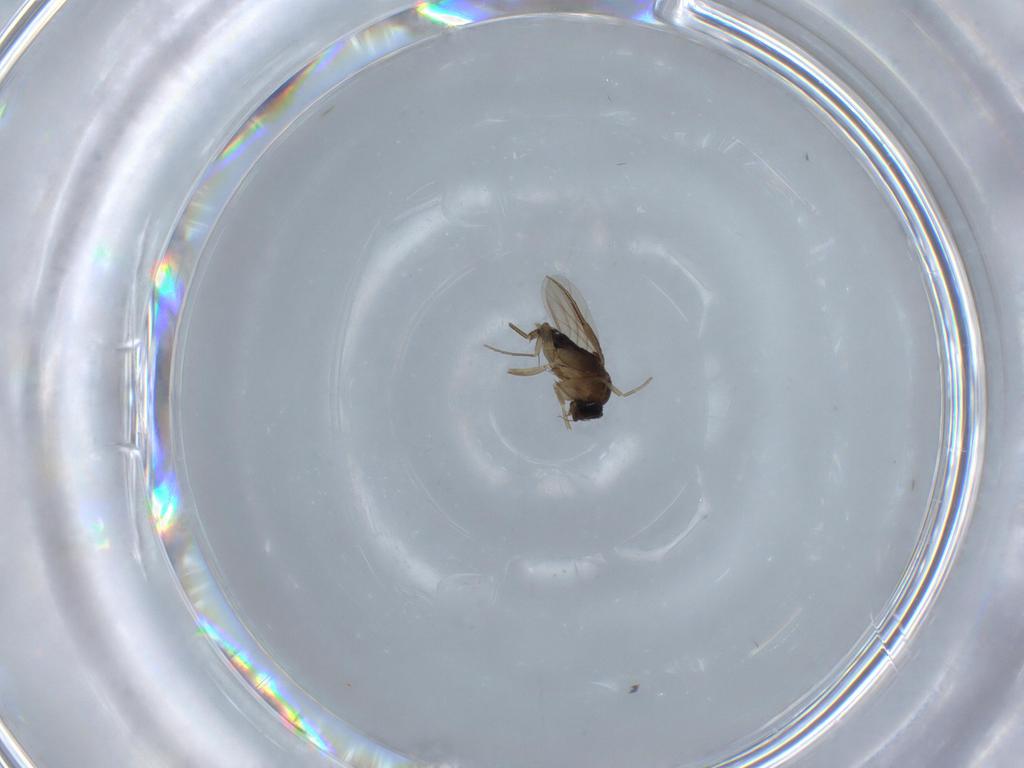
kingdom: Animalia
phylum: Arthropoda
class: Insecta
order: Diptera
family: Phoridae
